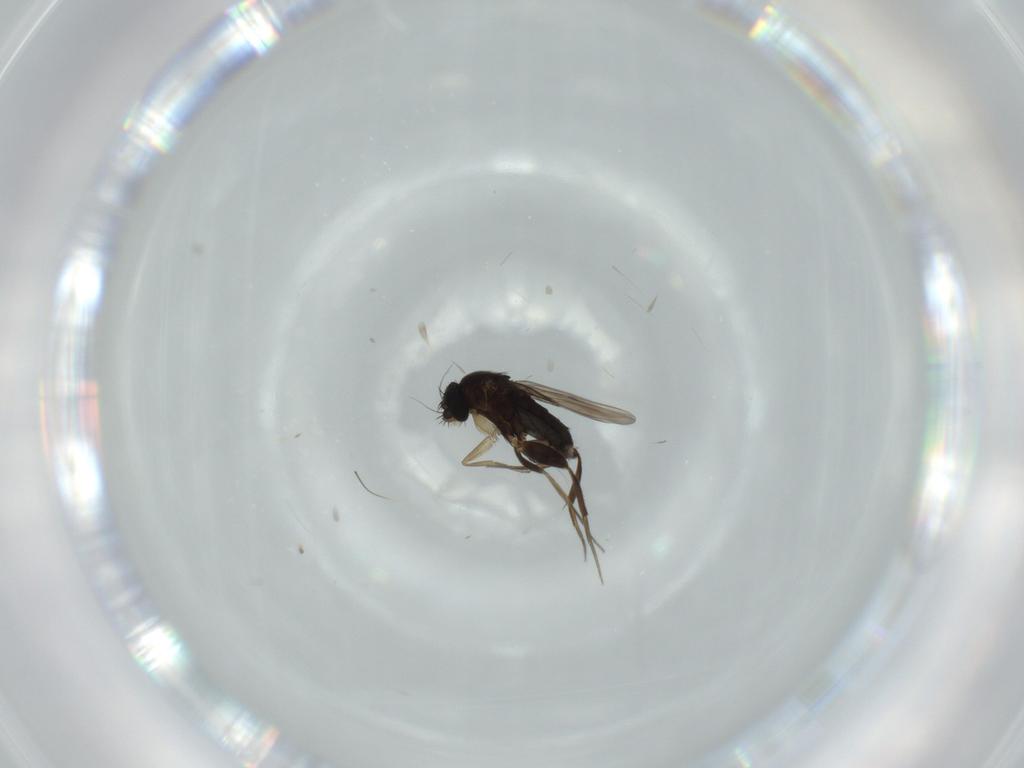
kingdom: Animalia
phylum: Arthropoda
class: Insecta
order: Diptera
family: Phoridae
